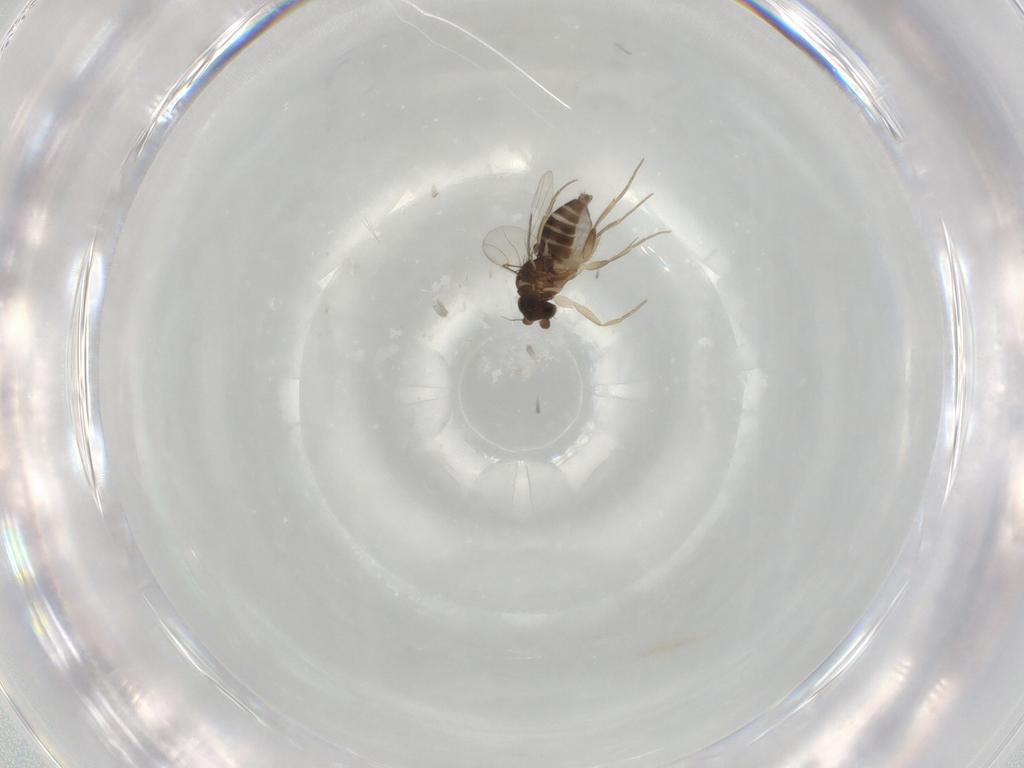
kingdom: Animalia
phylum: Arthropoda
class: Insecta
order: Diptera
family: Phoridae
